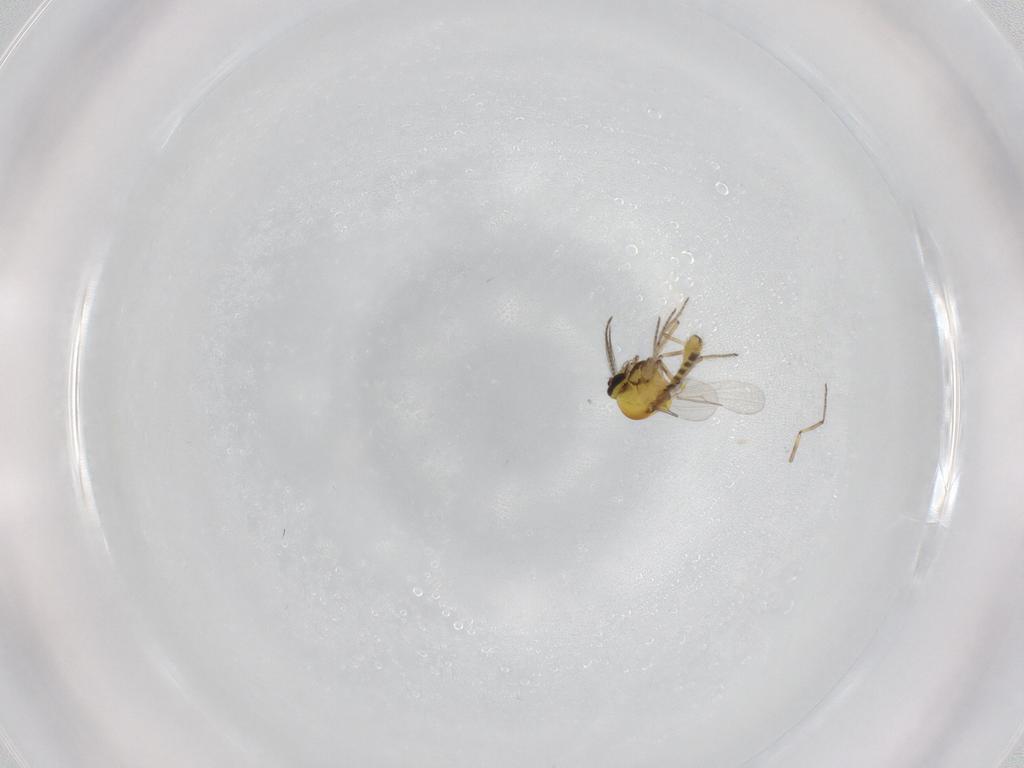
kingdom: Animalia
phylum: Arthropoda
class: Insecta
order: Diptera
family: Ceratopogonidae
